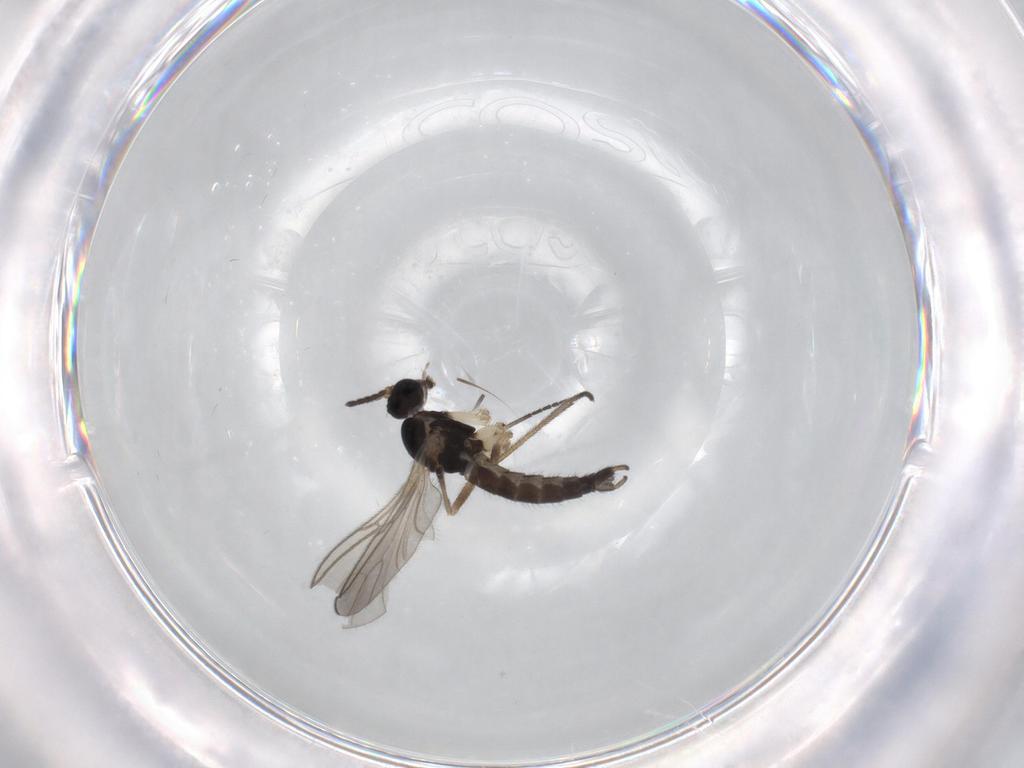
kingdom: Animalia
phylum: Arthropoda
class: Insecta
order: Diptera
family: Sciaridae
